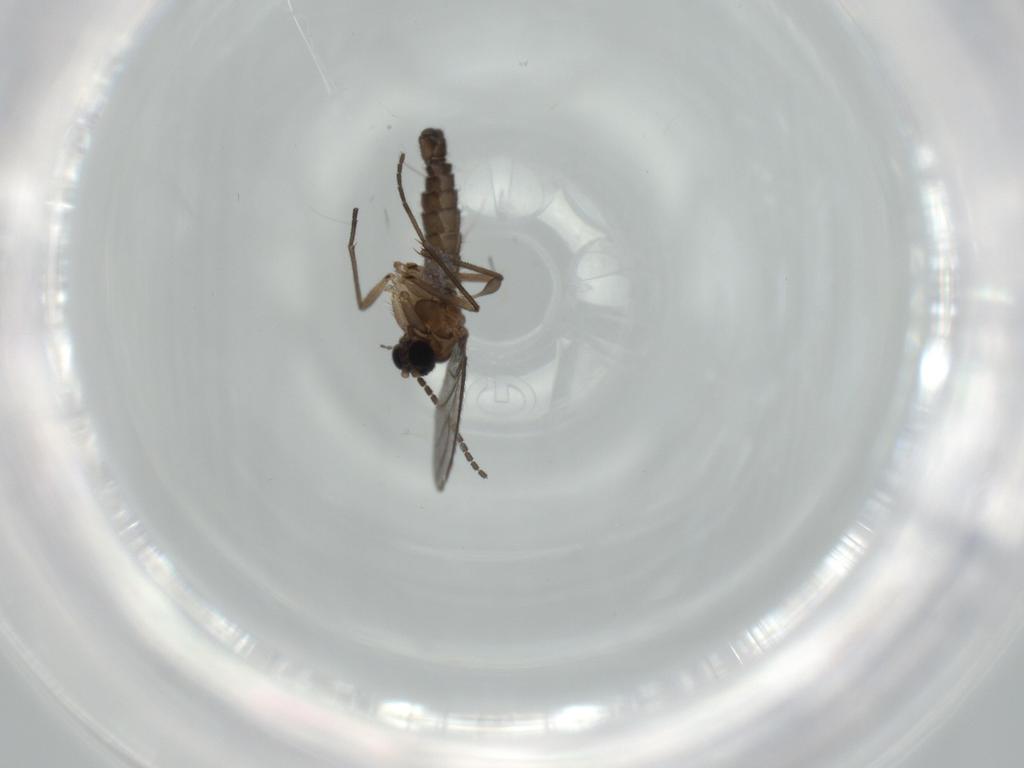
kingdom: Animalia
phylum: Arthropoda
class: Insecta
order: Diptera
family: Sciaridae
